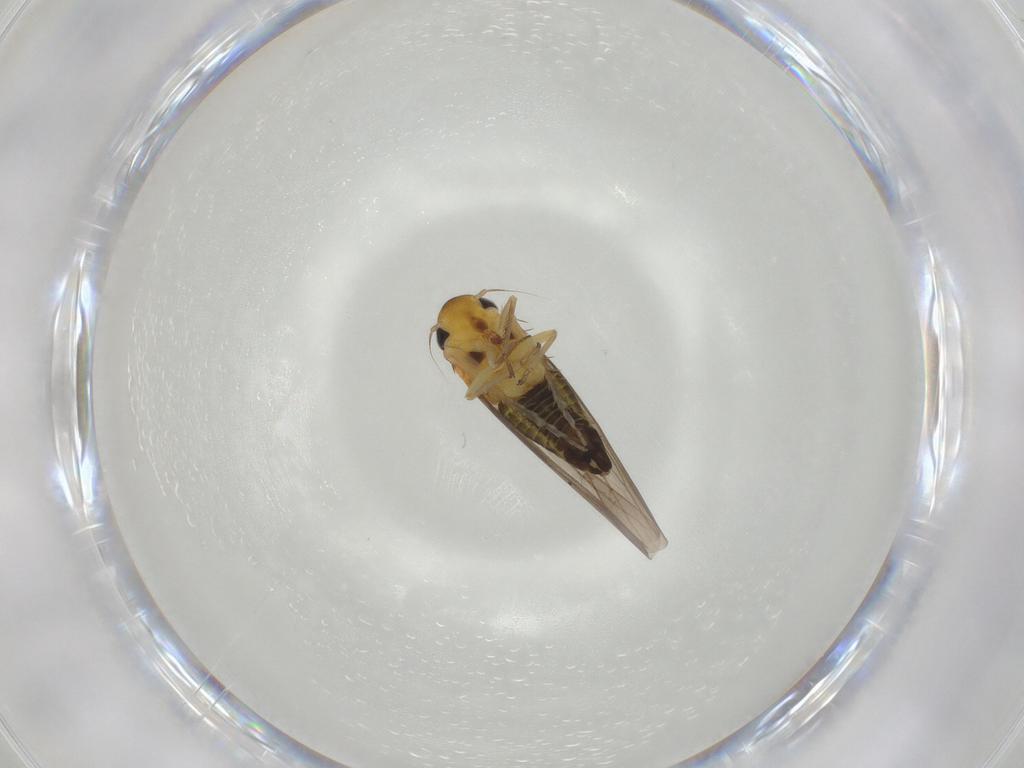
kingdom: Animalia
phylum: Arthropoda
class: Insecta
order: Hemiptera
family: Cicadellidae
